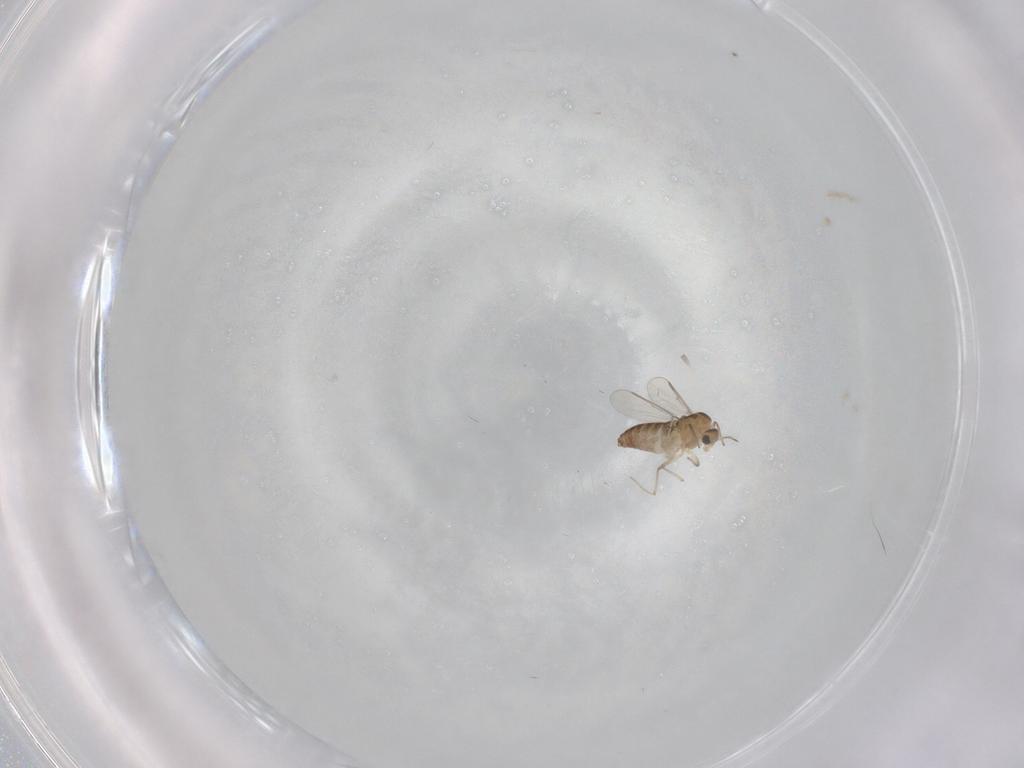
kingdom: Animalia
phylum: Arthropoda
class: Insecta
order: Diptera
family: Chironomidae
